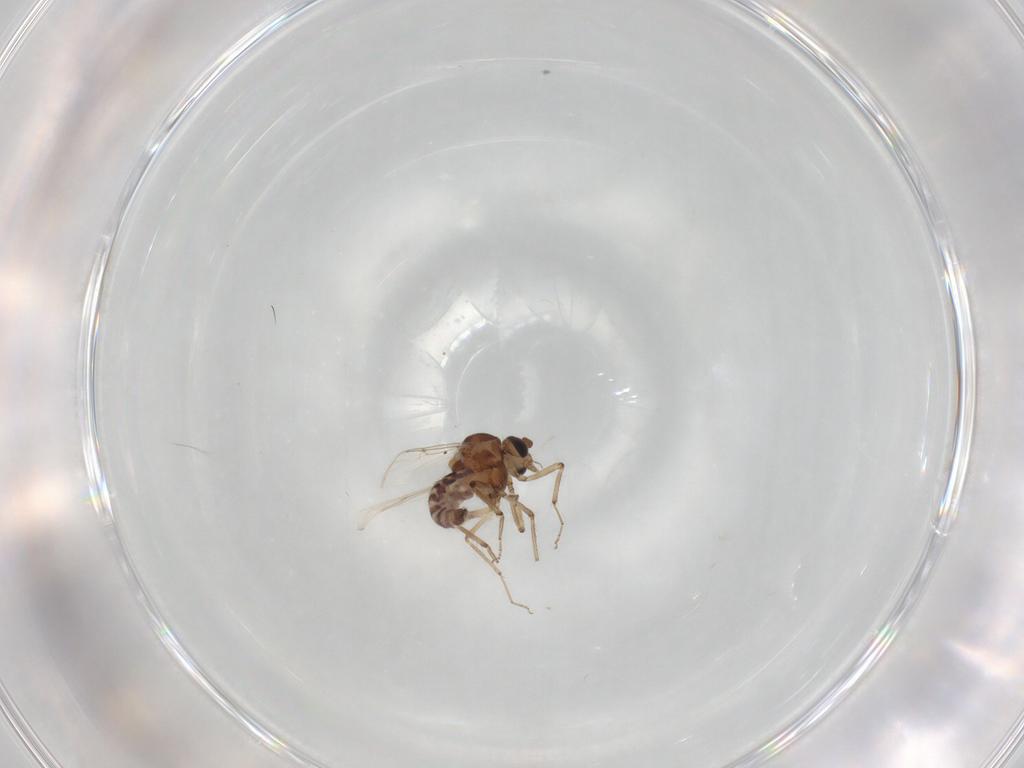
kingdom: Animalia
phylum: Arthropoda
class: Insecta
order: Diptera
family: Ceratopogonidae
